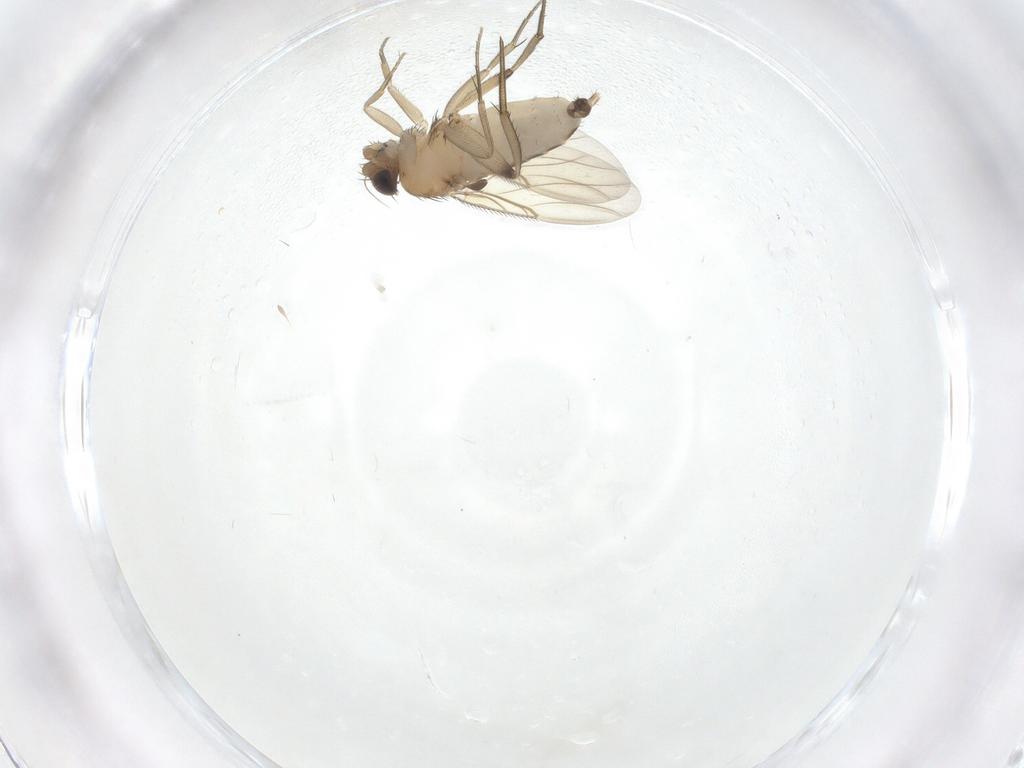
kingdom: Animalia
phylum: Arthropoda
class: Insecta
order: Diptera
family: Phoridae
